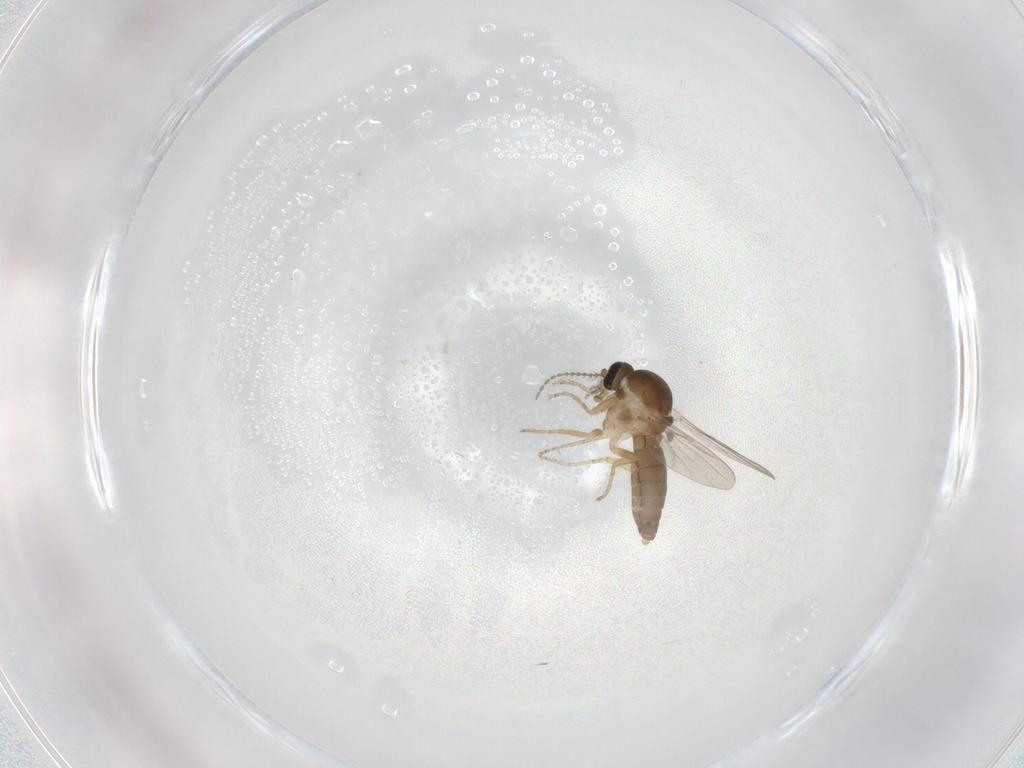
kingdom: Animalia
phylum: Arthropoda
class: Insecta
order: Diptera
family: Ceratopogonidae
